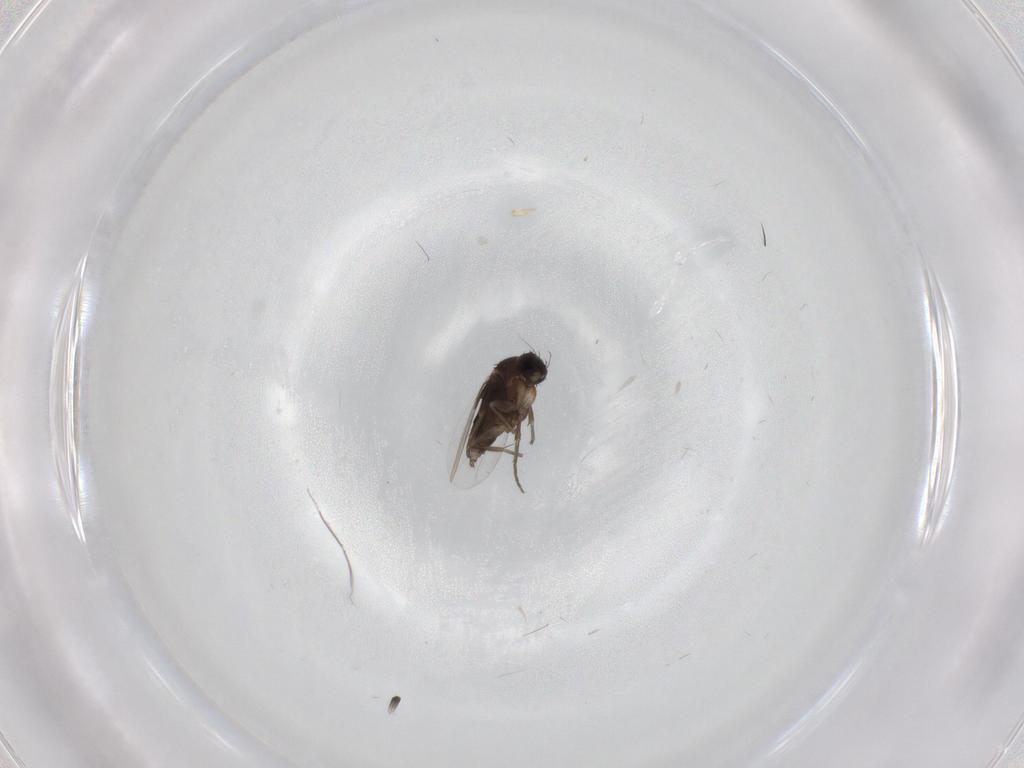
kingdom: Animalia
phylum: Arthropoda
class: Insecta
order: Diptera
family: Phoridae
